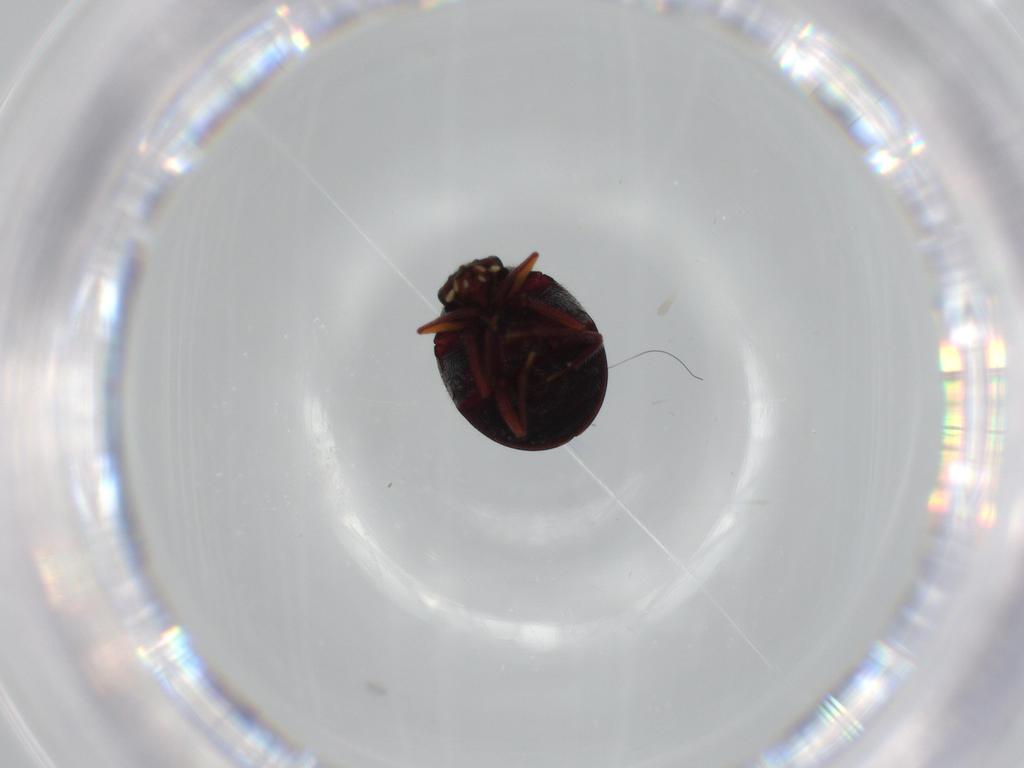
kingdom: Animalia
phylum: Arthropoda
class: Insecta
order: Coleoptera
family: Ptinidae
